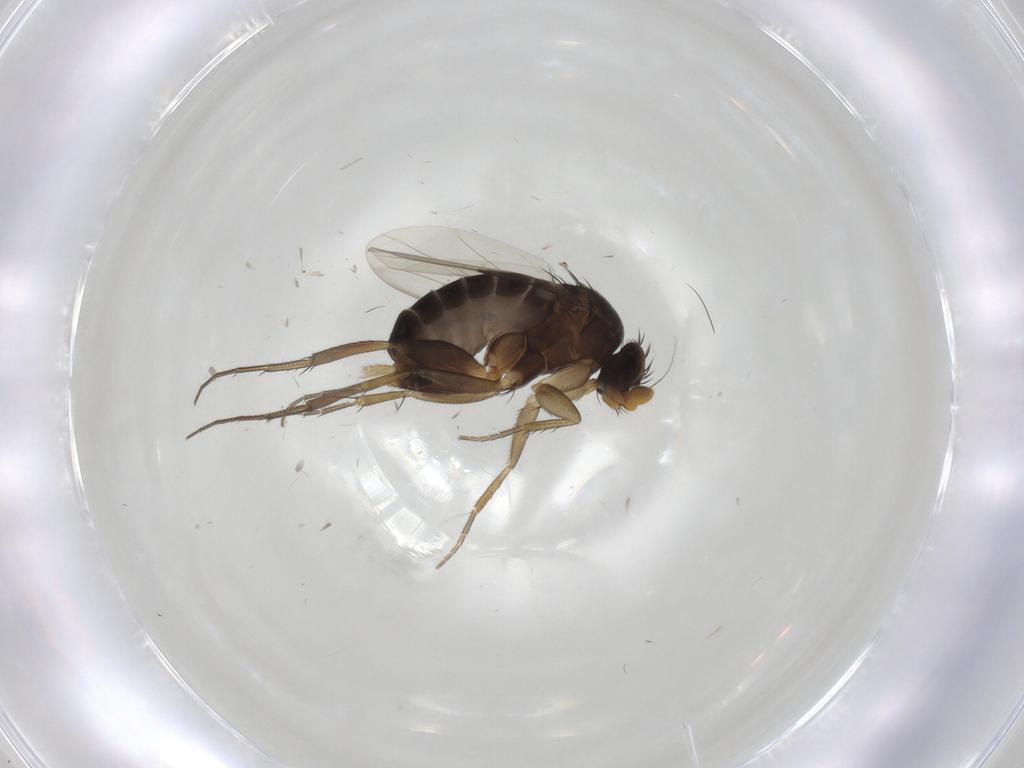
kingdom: Animalia
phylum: Arthropoda
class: Insecta
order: Diptera
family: Phoridae
